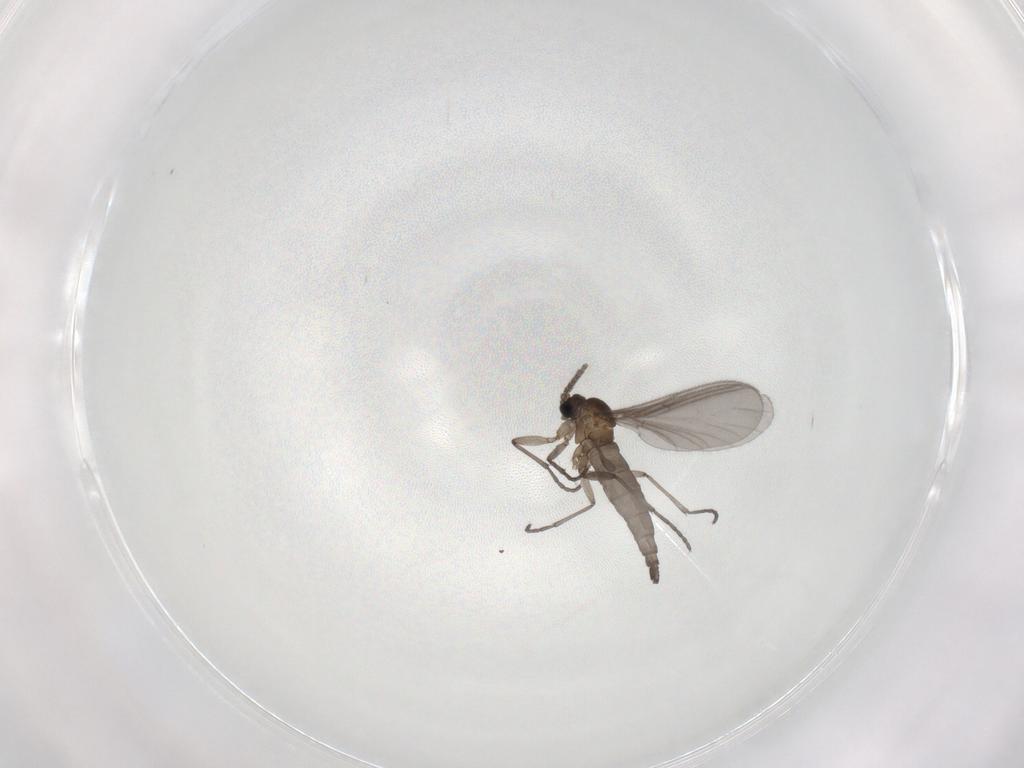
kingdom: Animalia
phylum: Arthropoda
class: Insecta
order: Diptera
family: Sciaridae
